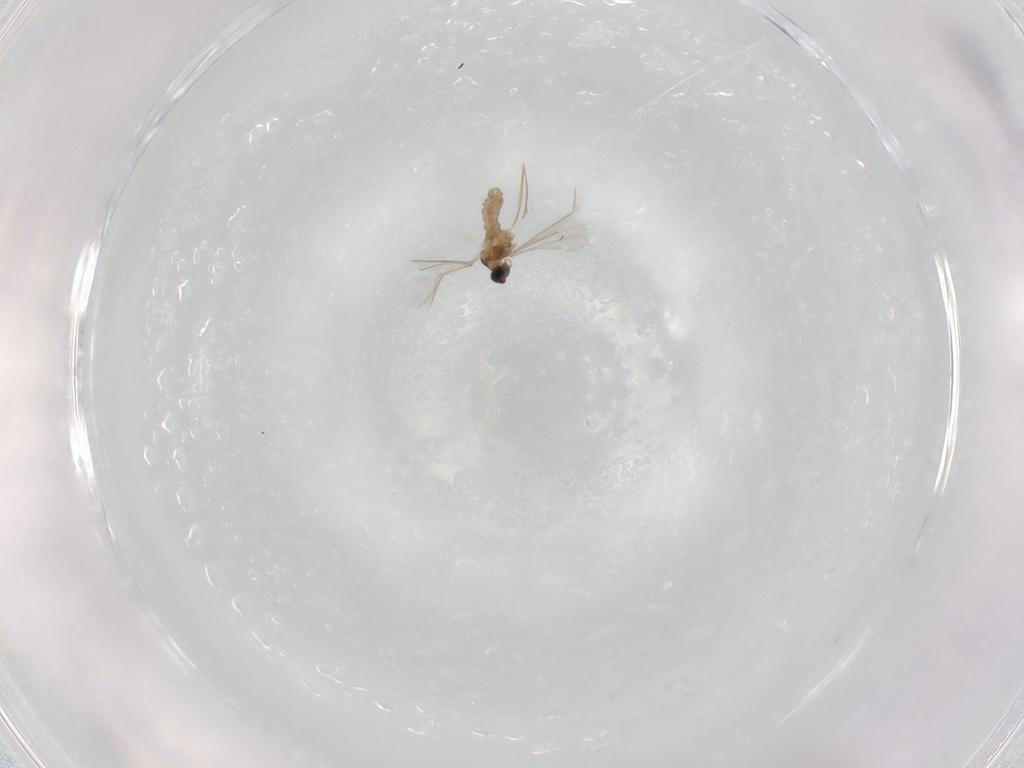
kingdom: Animalia
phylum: Arthropoda
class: Insecta
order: Diptera
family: Cecidomyiidae
